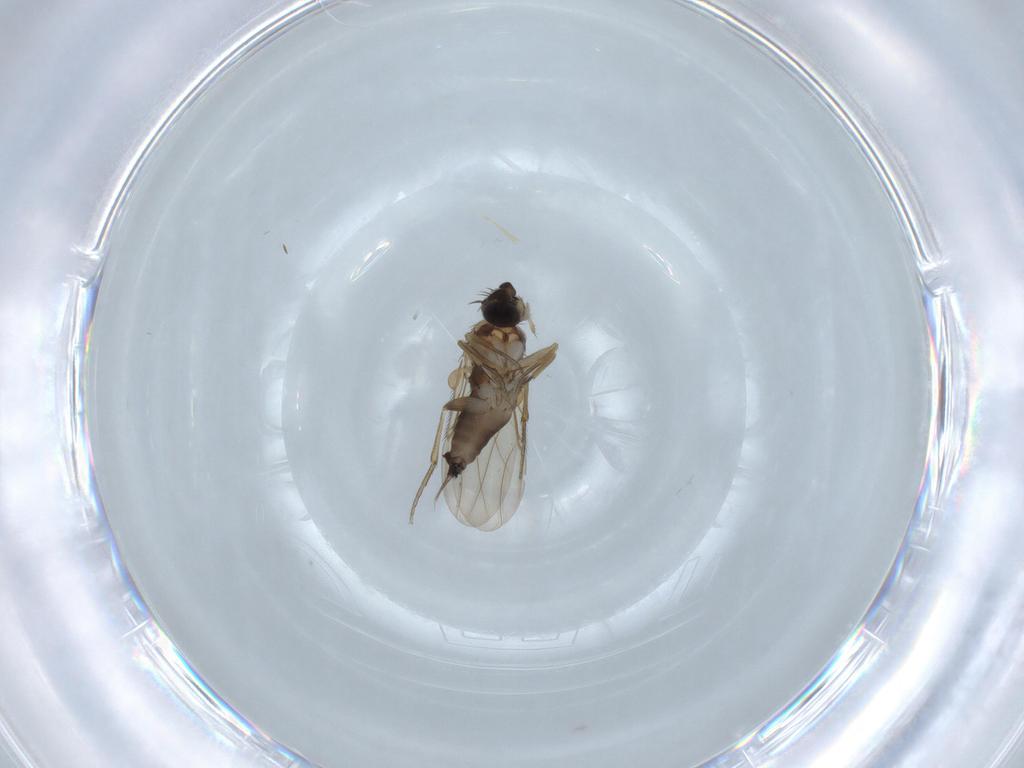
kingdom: Animalia
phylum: Arthropoda
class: Insecta
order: Diptera
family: Phoridae
